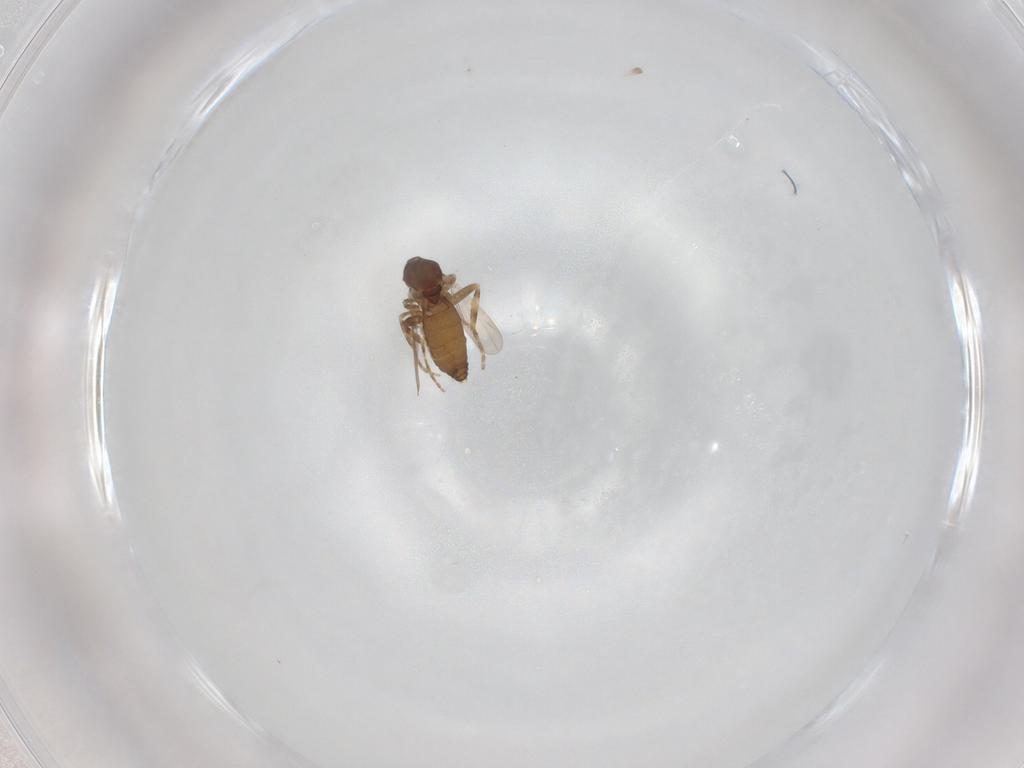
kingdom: Animalia
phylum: Arthropoda
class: Insecta
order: Diptera
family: Ceratopogonidae
